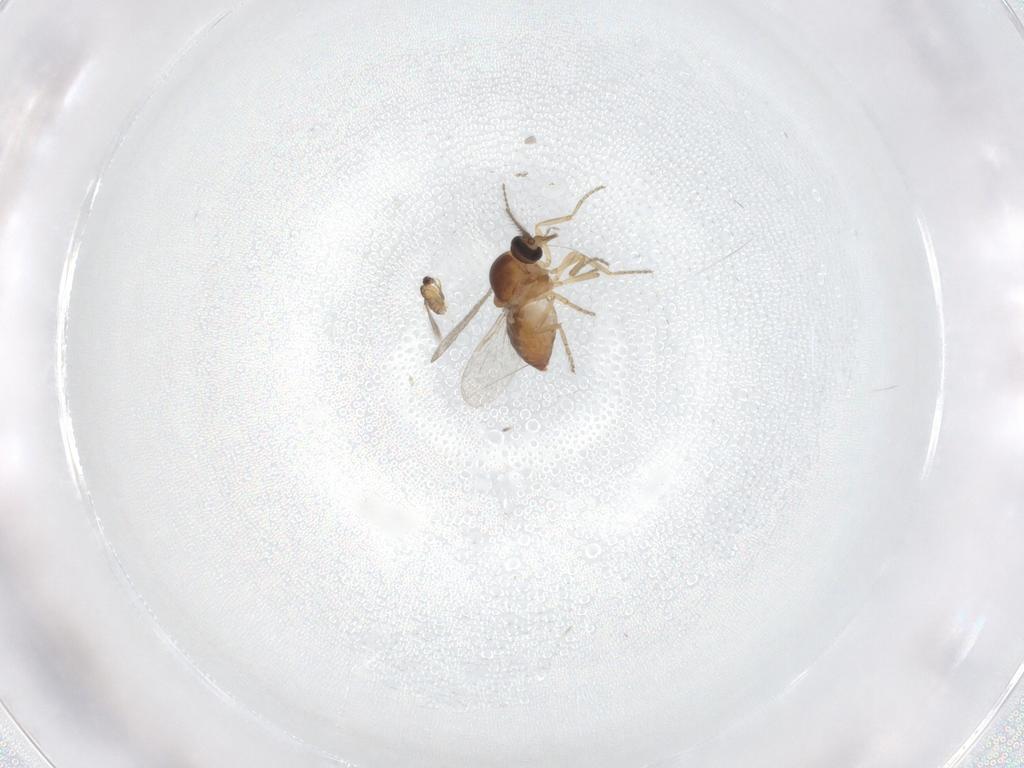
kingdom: Animalia
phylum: Arthropoda
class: Insecta
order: Diptera
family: Ceratopogonidae
